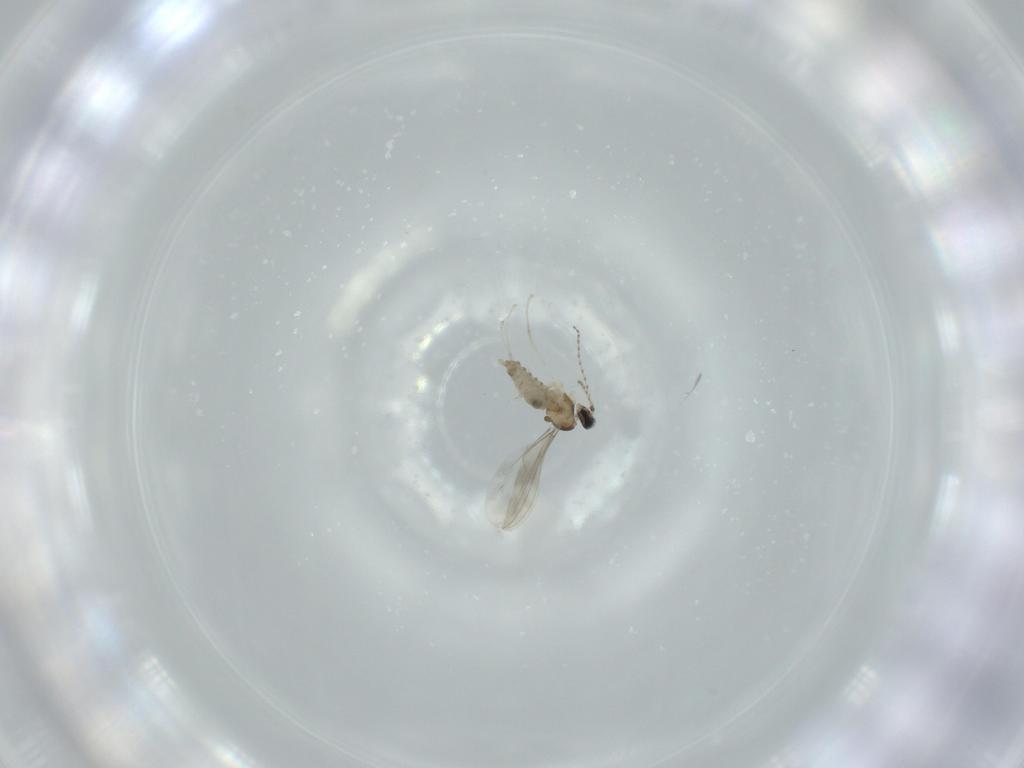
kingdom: Animalia
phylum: Arthropoda
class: Insecta
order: Diptera
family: Cecidomyiidae
